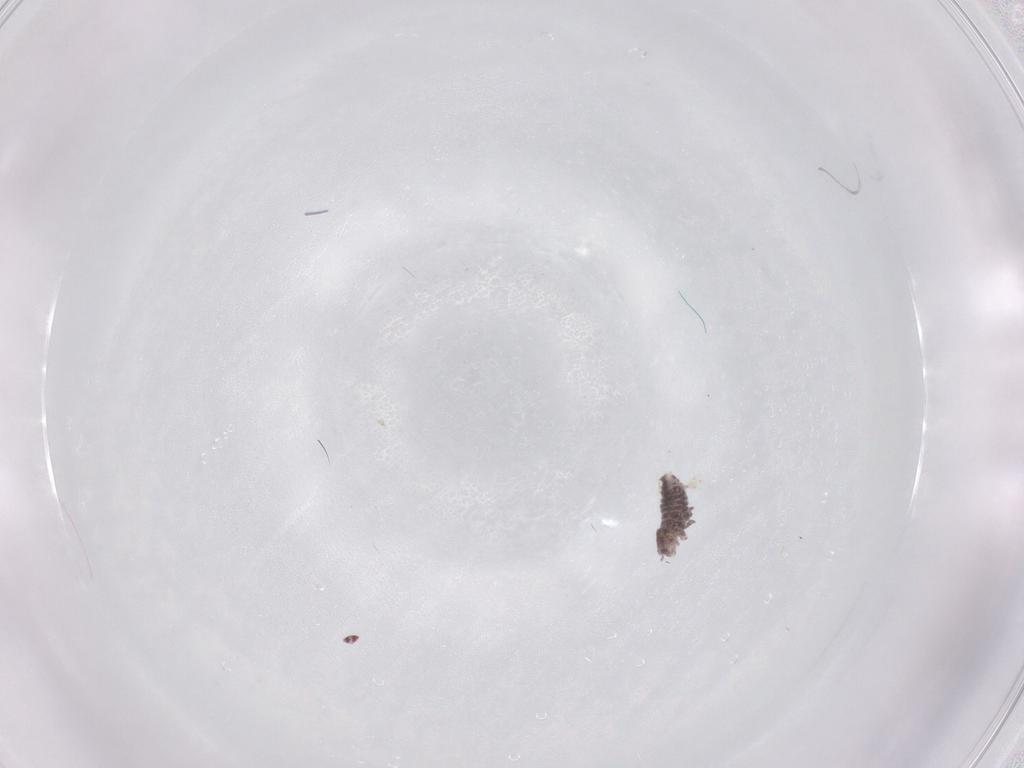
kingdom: Animalia
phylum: Arthropoda
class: Collembola
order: Poduromorpha
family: Hypogastruridae
